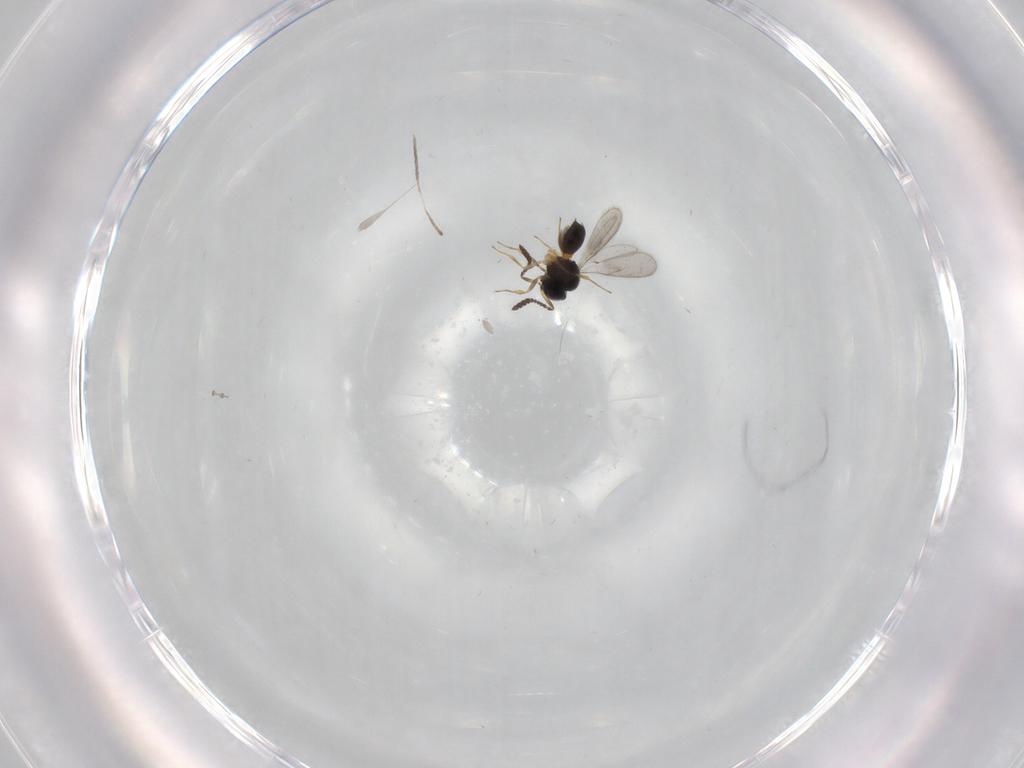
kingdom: Animalia
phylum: Arthropoda
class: Insecta
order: Hymenoptera
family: Scelionidae
